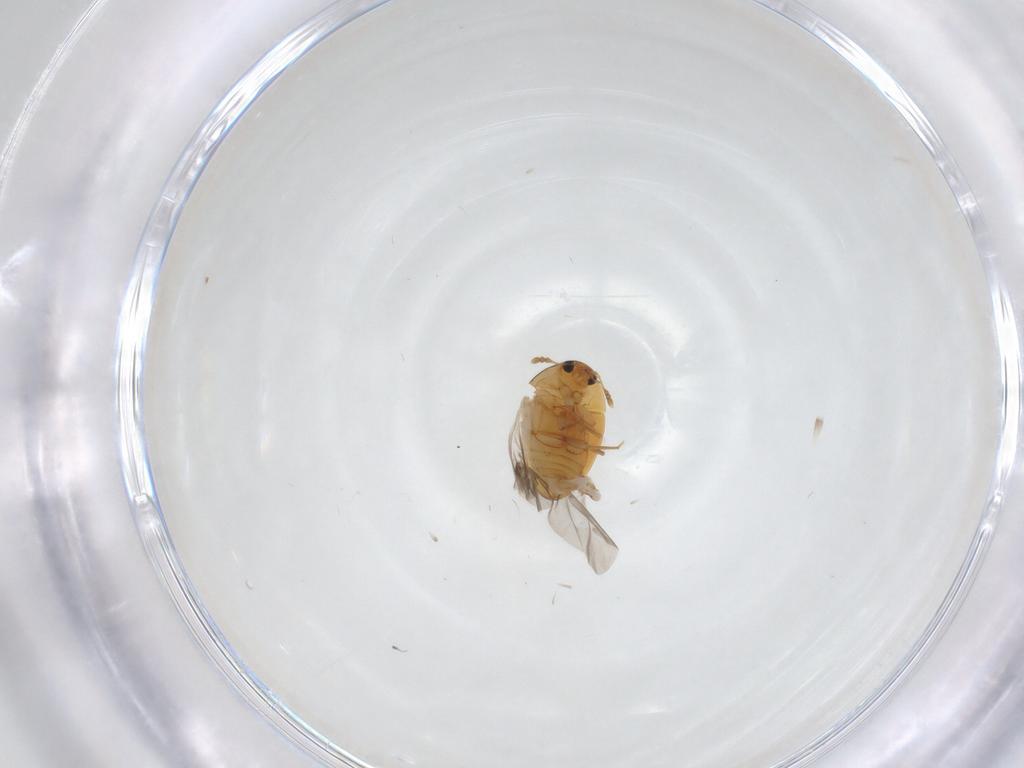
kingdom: Animalia
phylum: Arthropoda
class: Insecta
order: Coleoptera
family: Phalacridae
